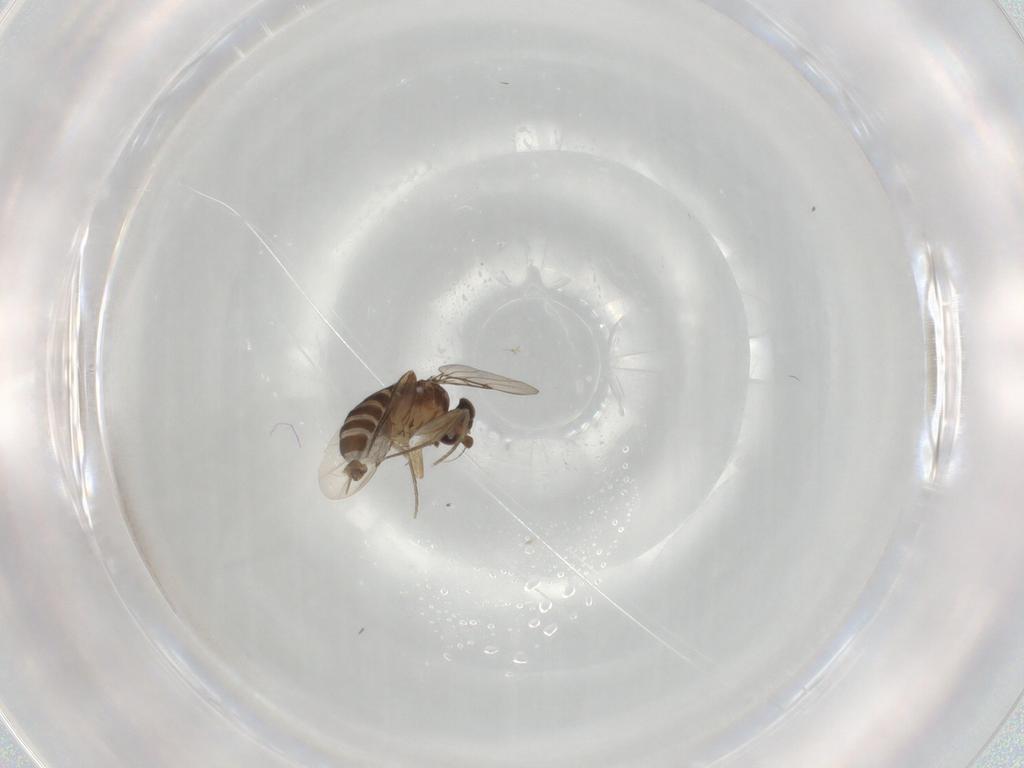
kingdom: Animalia
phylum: Arthropoda
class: Insecta
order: Diptera
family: Phoridae
